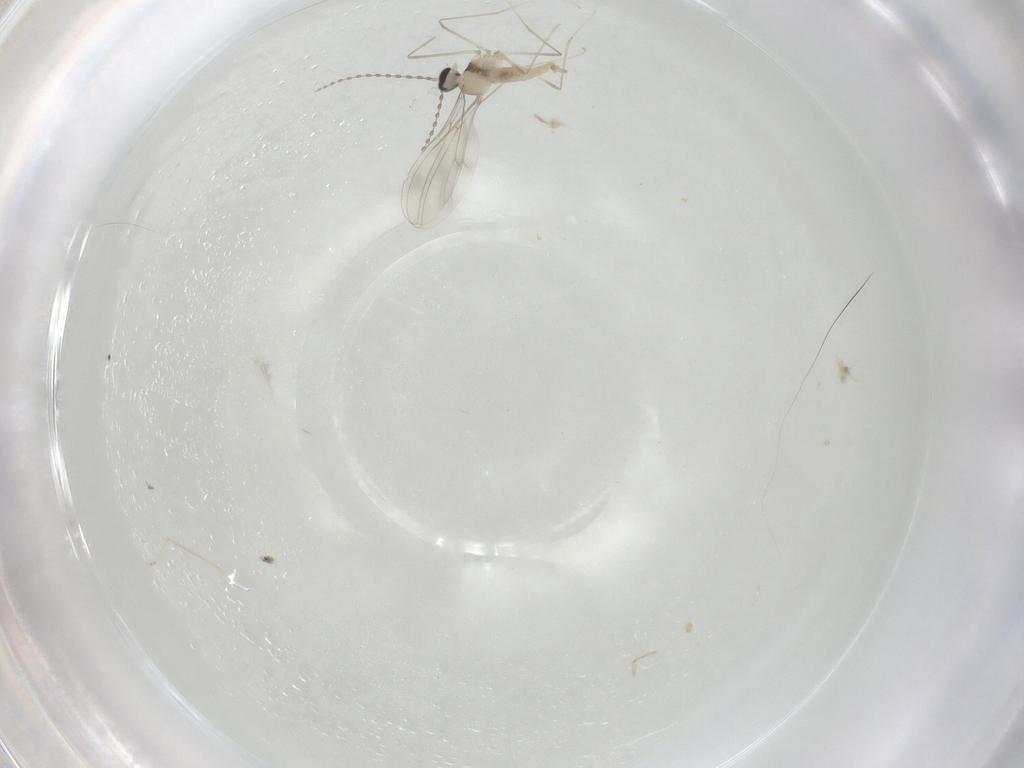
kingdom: Animalia
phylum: Arthropoda
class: Insecta
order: Diptera
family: Cecidomyiidae
